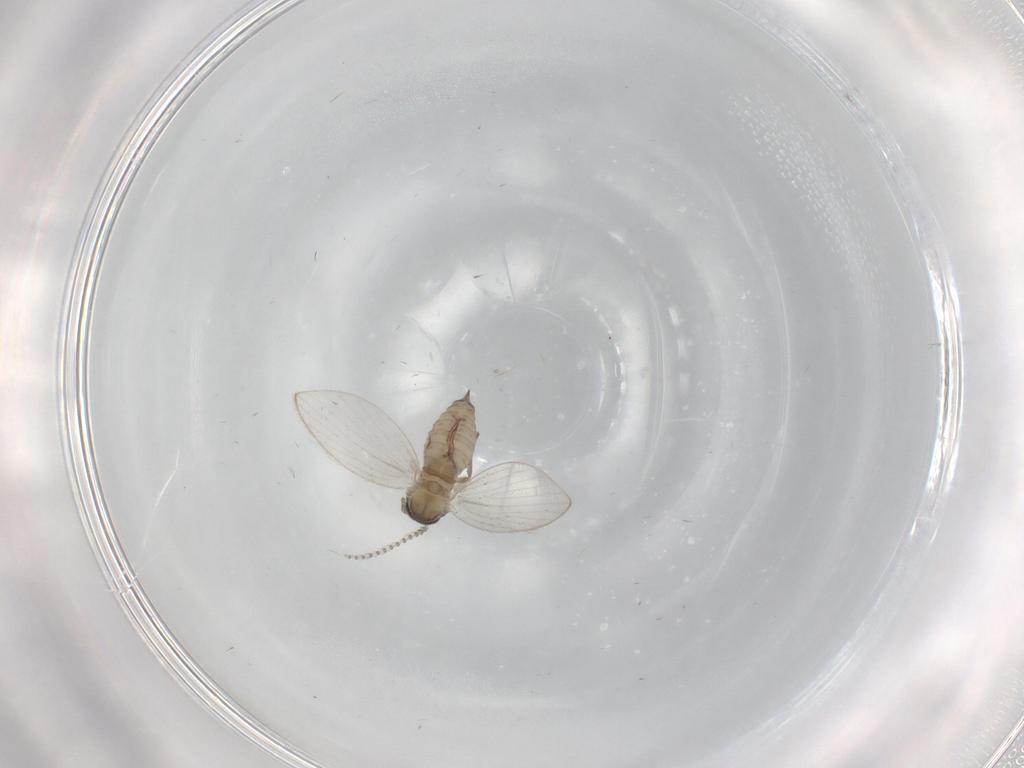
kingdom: Animalia
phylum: Arthropoda
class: Insecta
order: Diptera
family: Psychodidae
